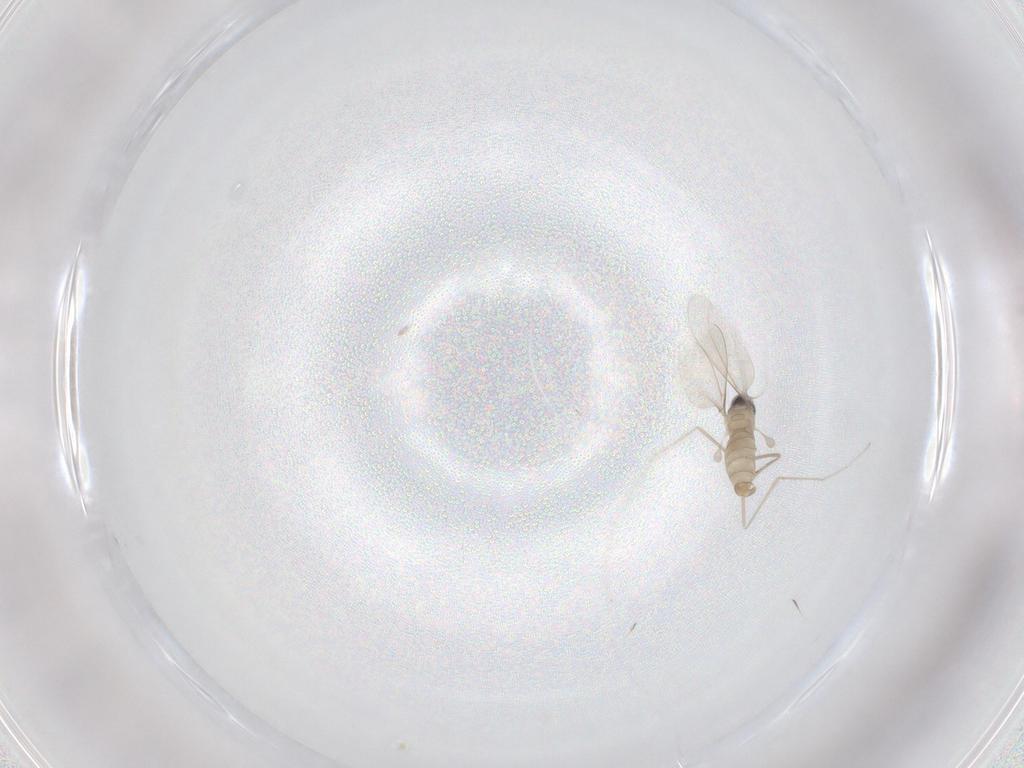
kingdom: Animalia
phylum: Arthropoda
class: Insecta
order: Diptera
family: Cecidomyiidae
